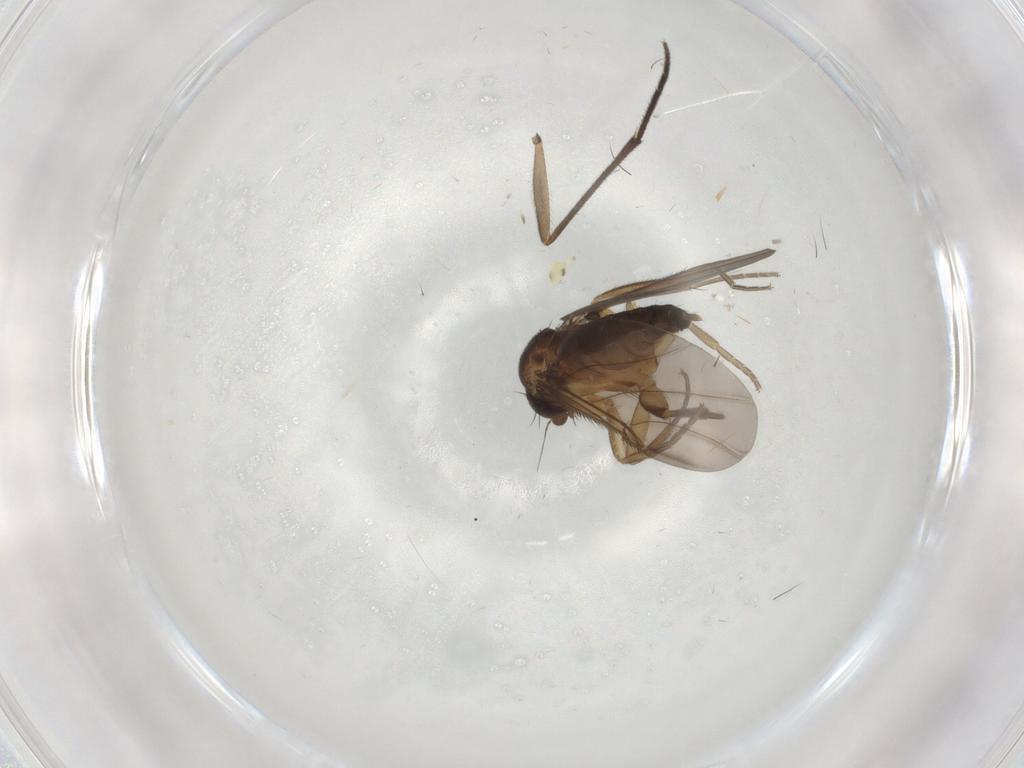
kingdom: Animalia
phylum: Arthropoda
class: Insecta
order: Diptera
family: Phoridae
